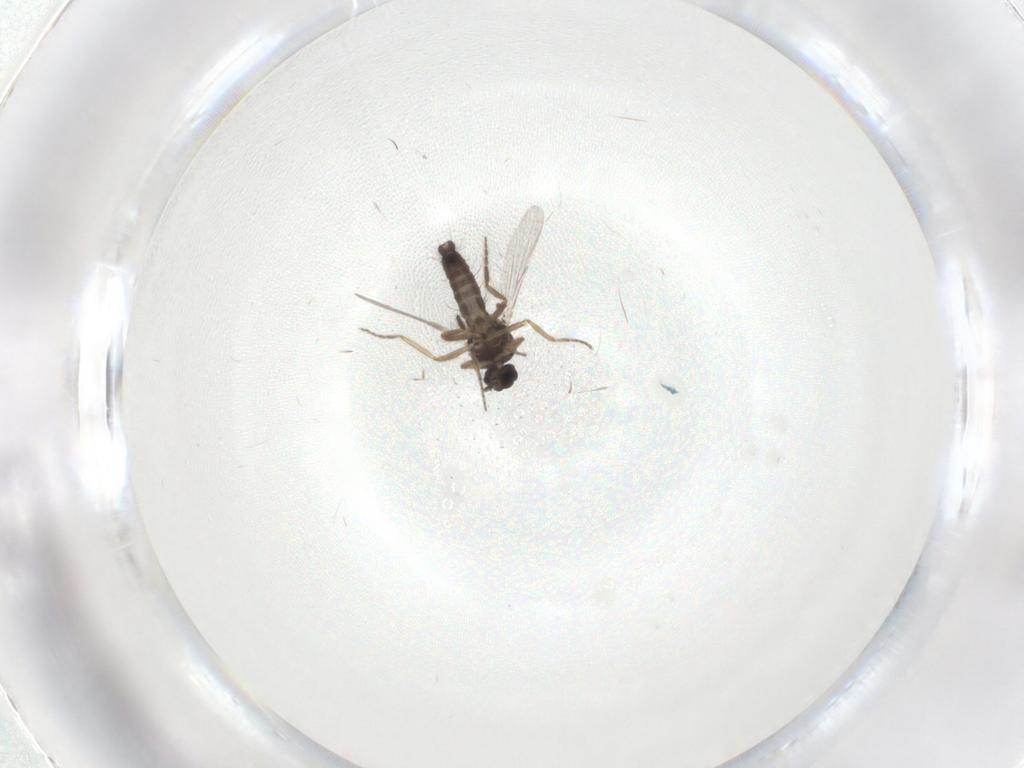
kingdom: Animalia
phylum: Arthropoda
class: Insecta
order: Diptera
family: Ceratopogonidae
